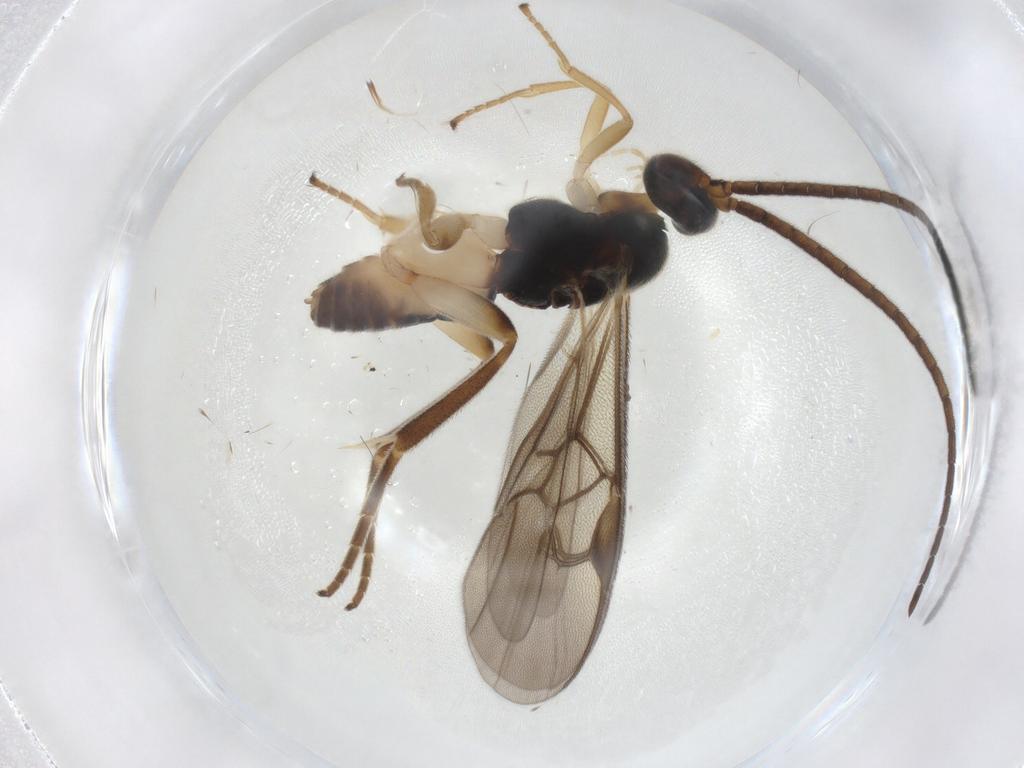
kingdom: Animalia
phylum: Arthropoda
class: Insecta
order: Hymenoptera
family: Braconidae
